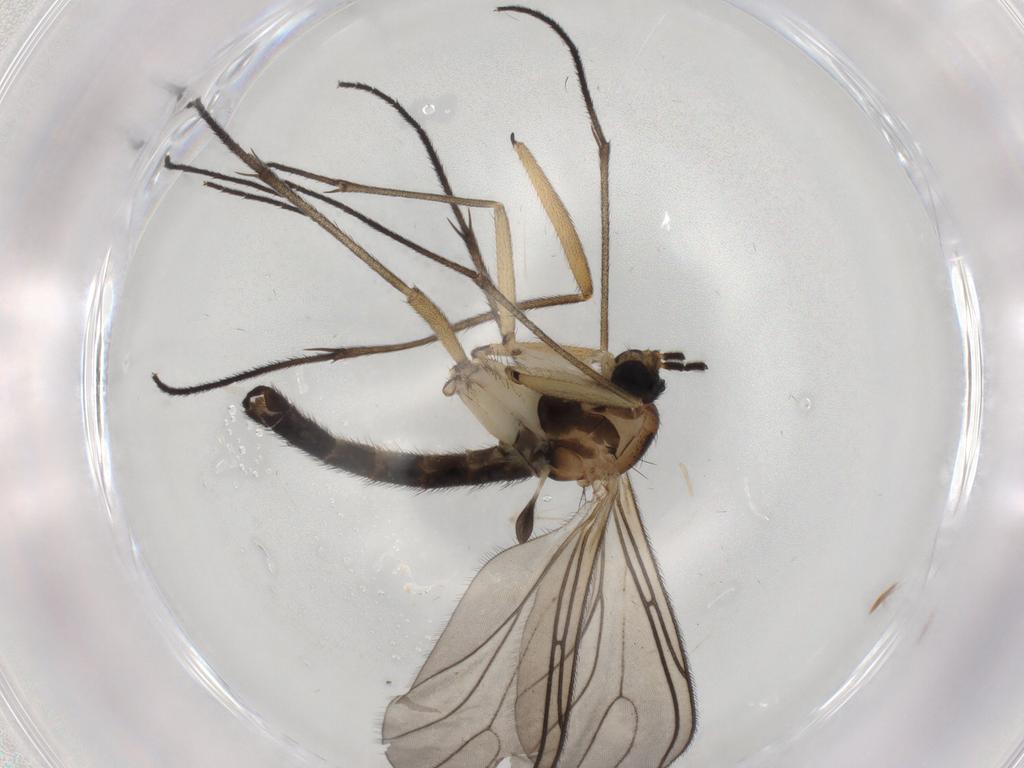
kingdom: Animalia
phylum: Arthropoda
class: Insecta
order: Diptera
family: Sciaridae
